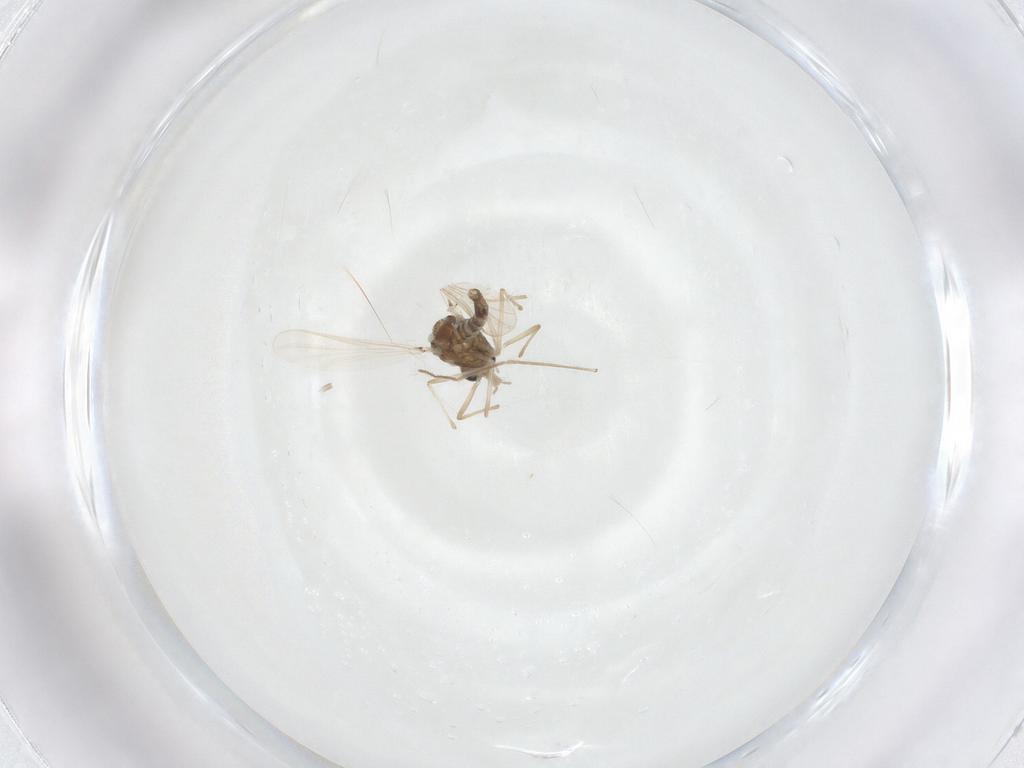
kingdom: Animalia
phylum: Arthropoda
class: Insecta
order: Diptera
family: Chironomidae
